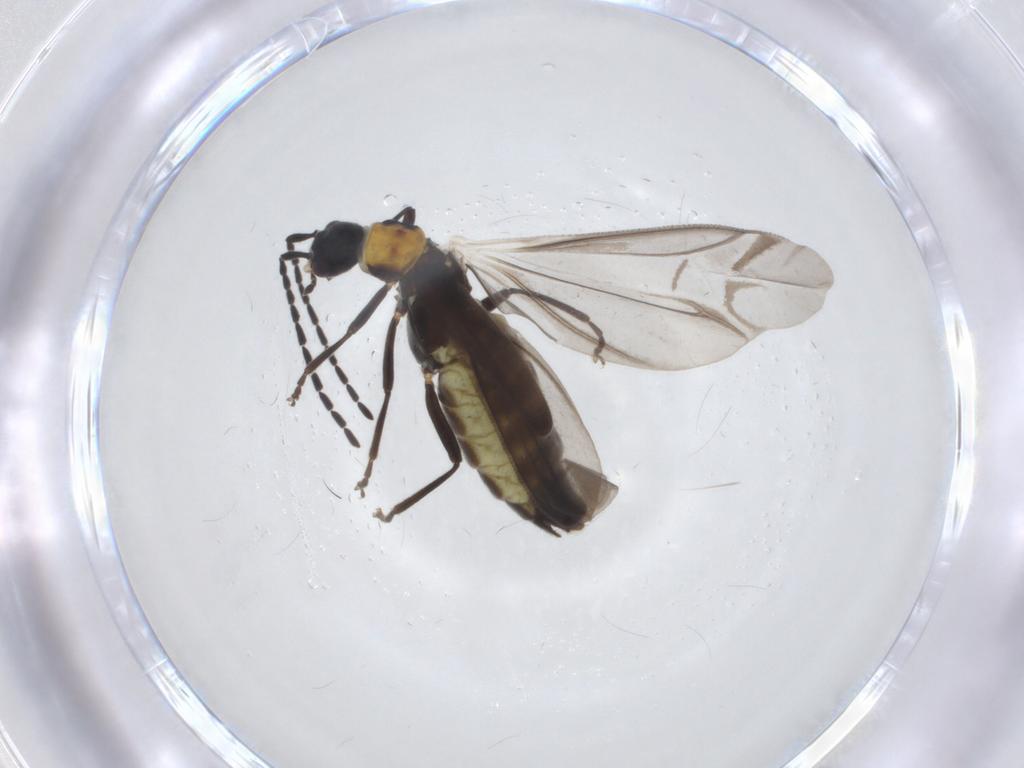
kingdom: Animalia
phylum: Arthropoda
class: Insecta
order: Coleoptera
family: Cantharidae
